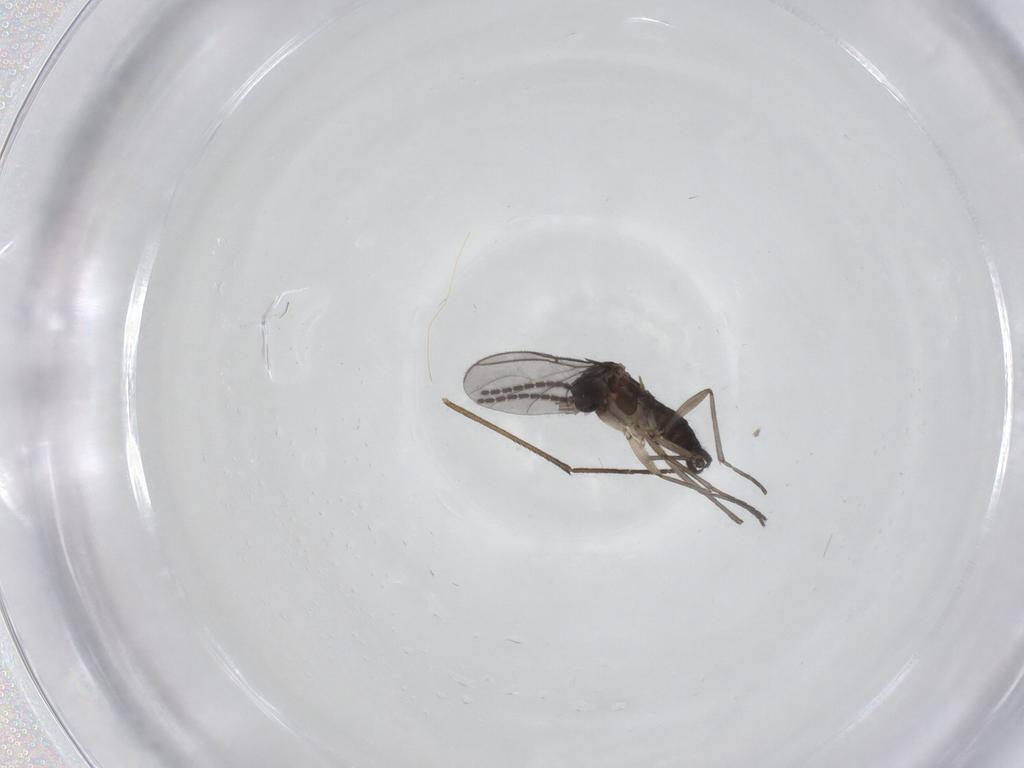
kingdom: Animalia
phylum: Arthropoda
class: Insecta
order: Diptera
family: Sciaridae
